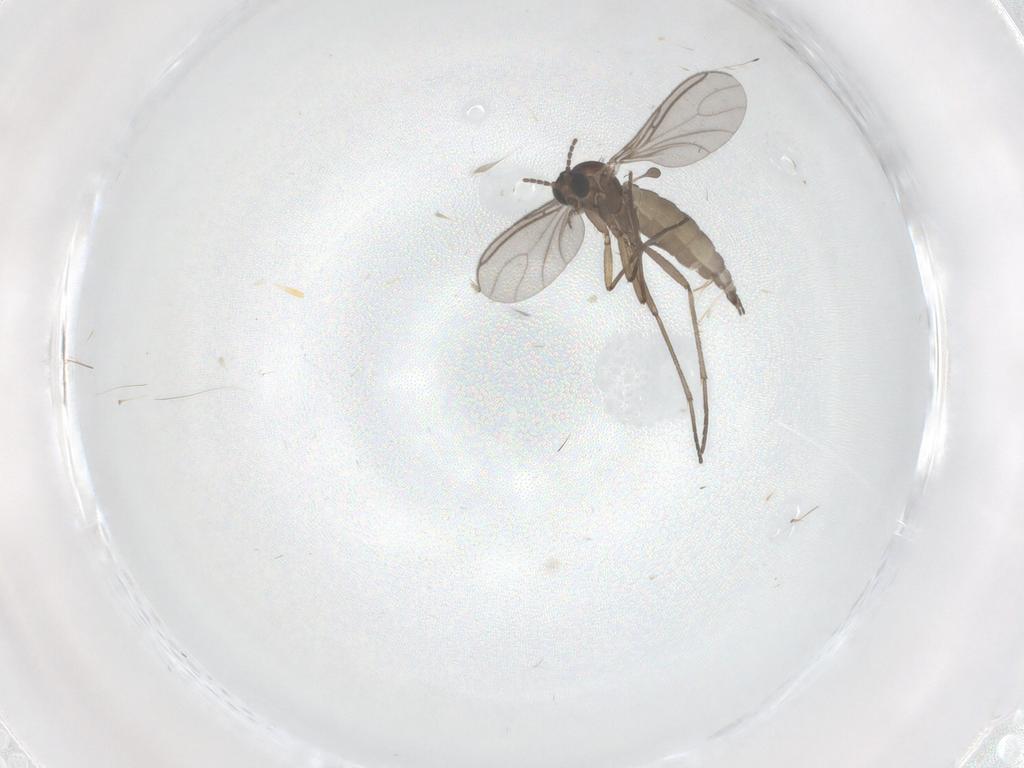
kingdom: Animalia
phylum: Arthropoda
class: Insecta
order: Diptera
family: Sciaridae
